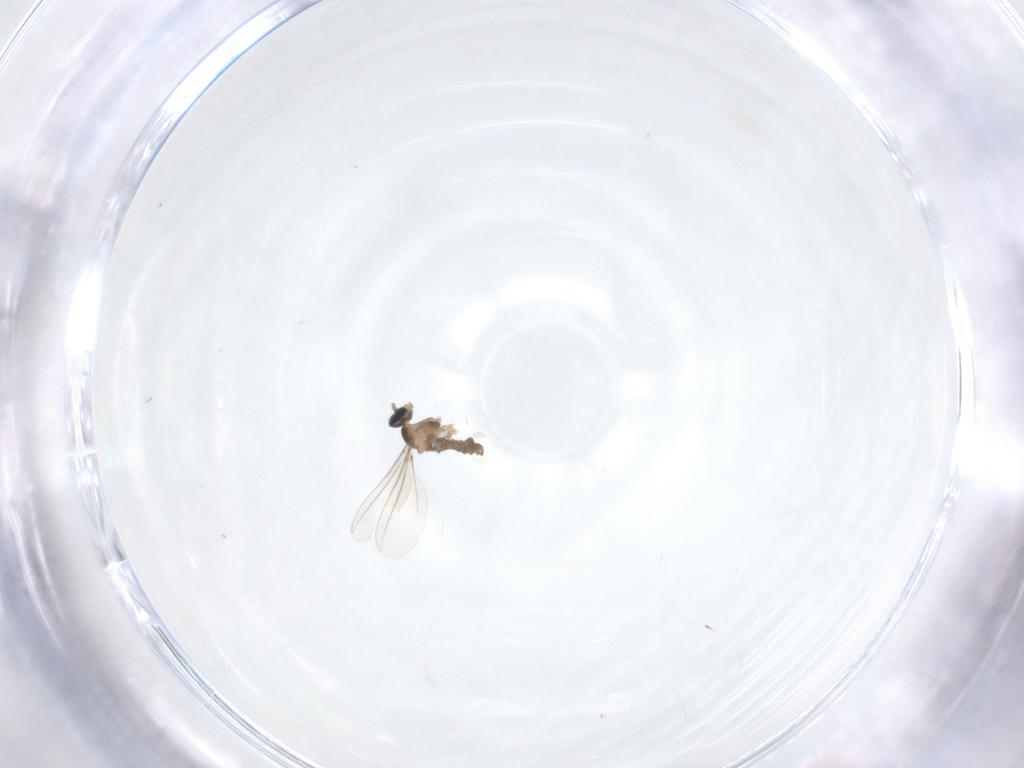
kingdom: Animalia
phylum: Arthropoda
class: Insecta
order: Diptera
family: Cecidomyiidae
